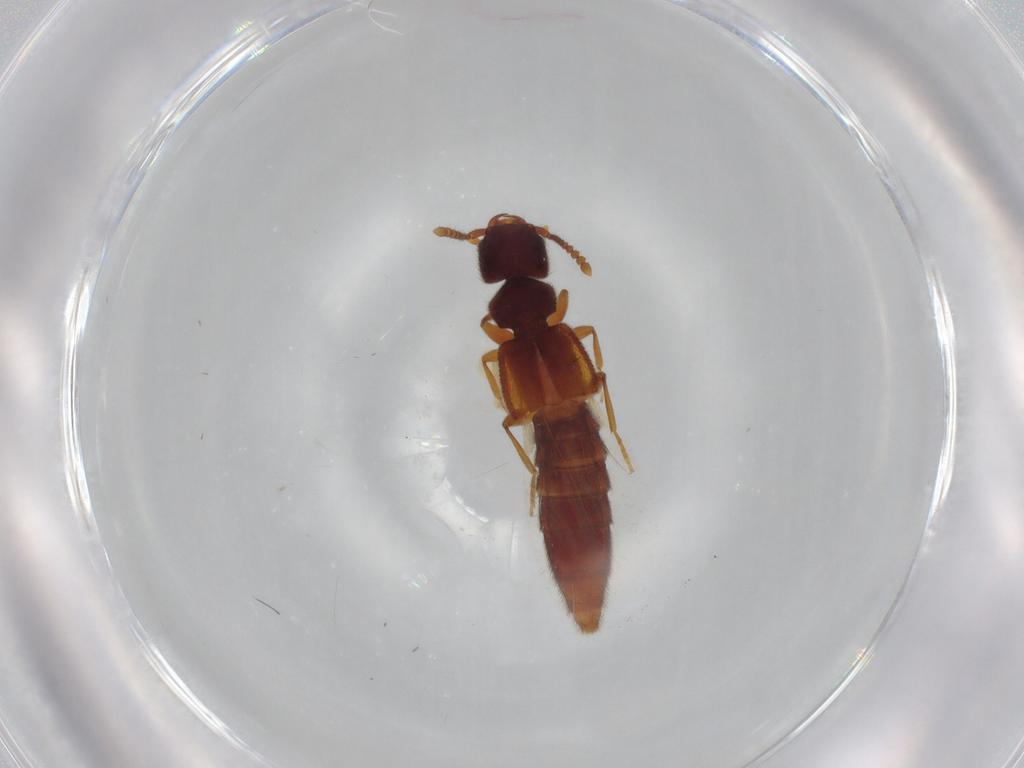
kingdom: Animalia
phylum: Arthropoda
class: Insecta
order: Coleoptera
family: Staphylinidae
